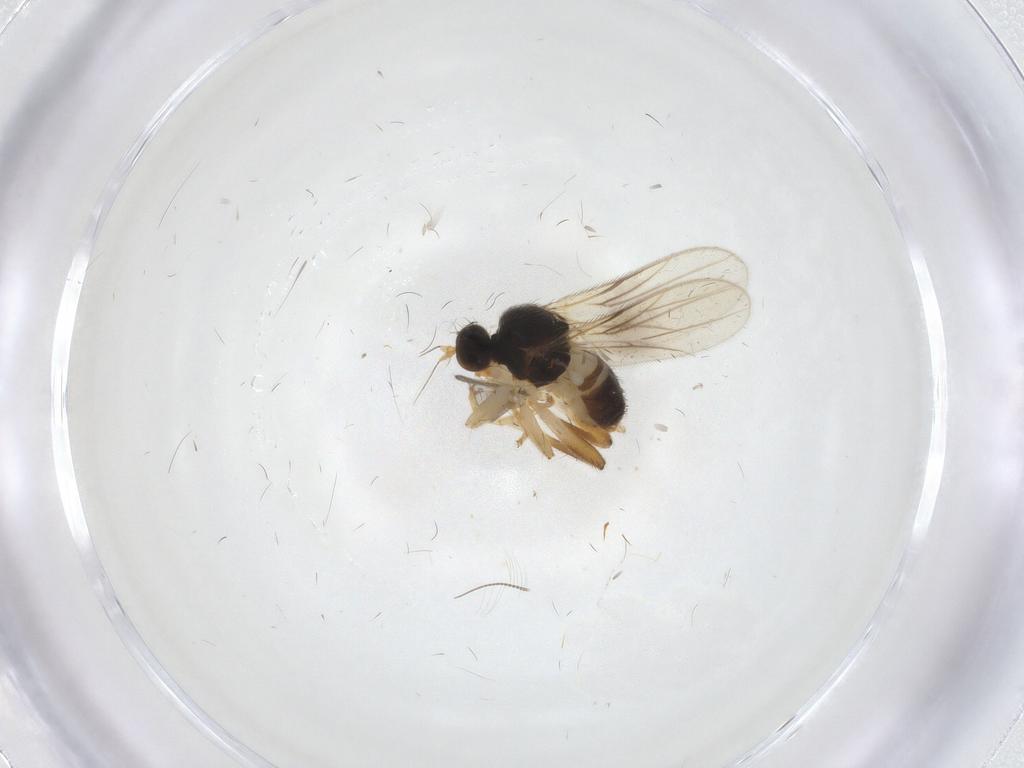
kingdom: Animalia
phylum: Arthropoda
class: Insecta
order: Diptera
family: Hybotidae
